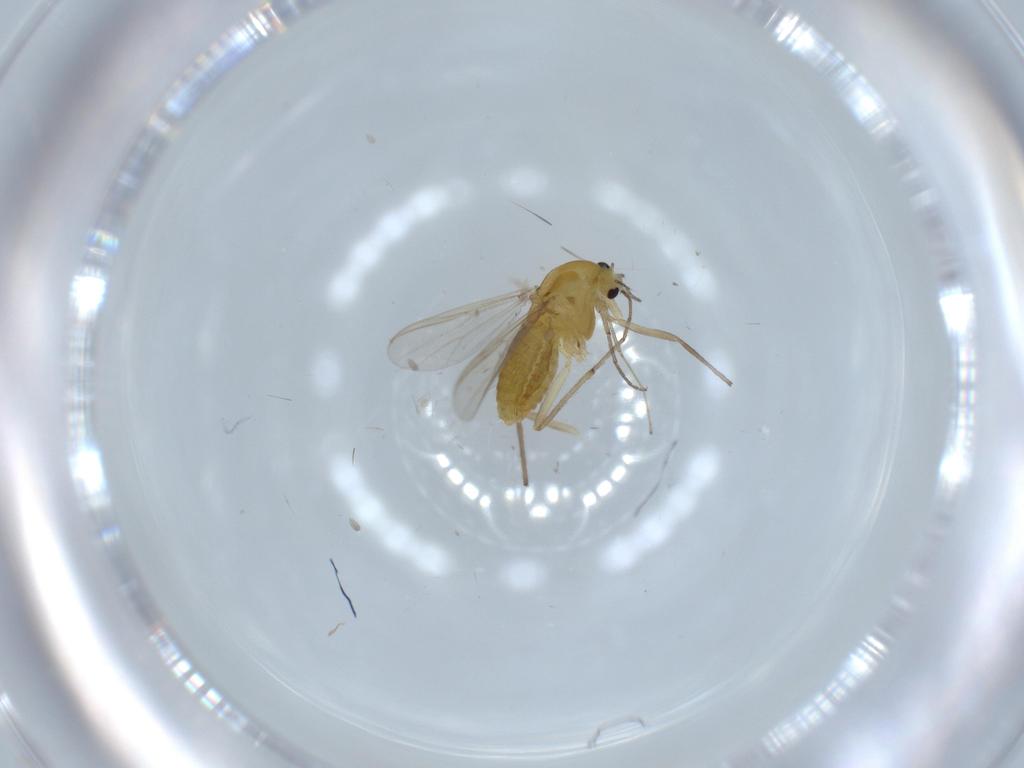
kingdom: Animalia
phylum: Arthropoda
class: Insecta
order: Diptera
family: Chironomidae
